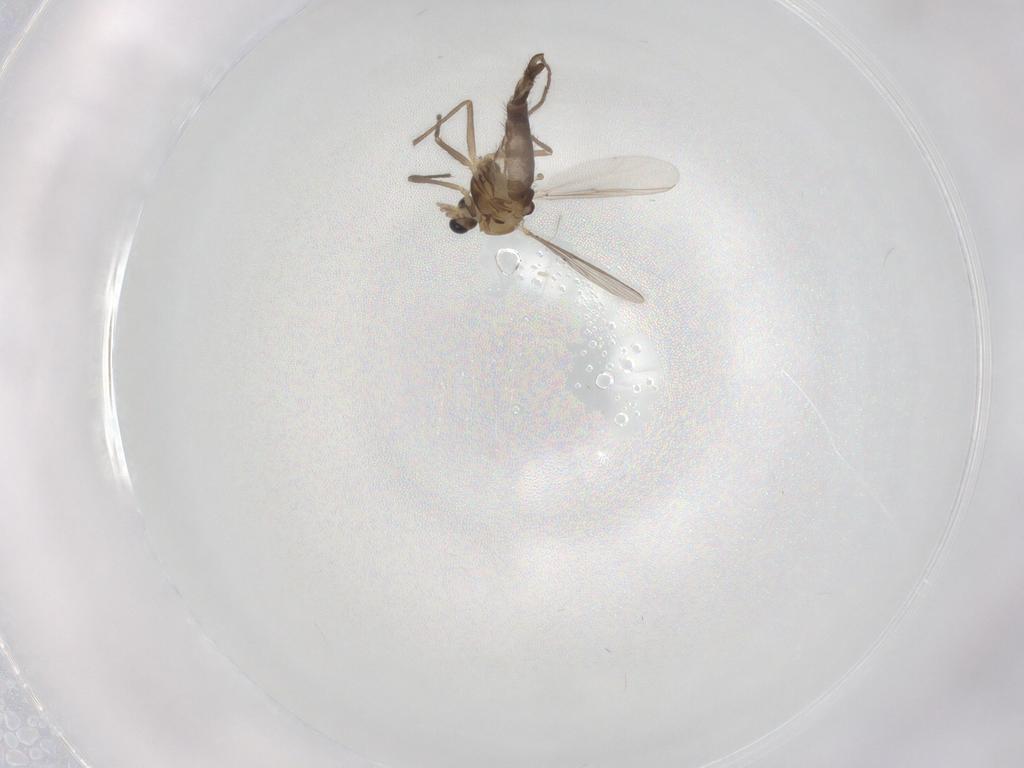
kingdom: Animalia
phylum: Arthropoda
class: Insecta
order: Diptera
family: Chironomidae
